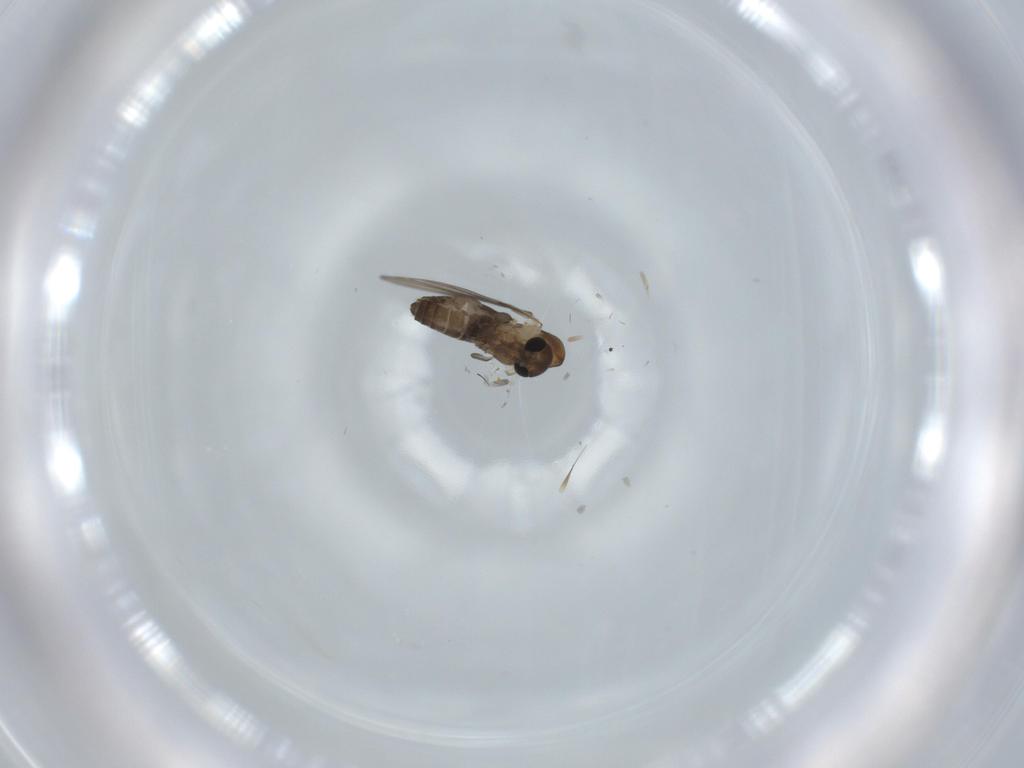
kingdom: Animalia
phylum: Arthropoda
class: Insecta
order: Diptera
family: Psychodidae
